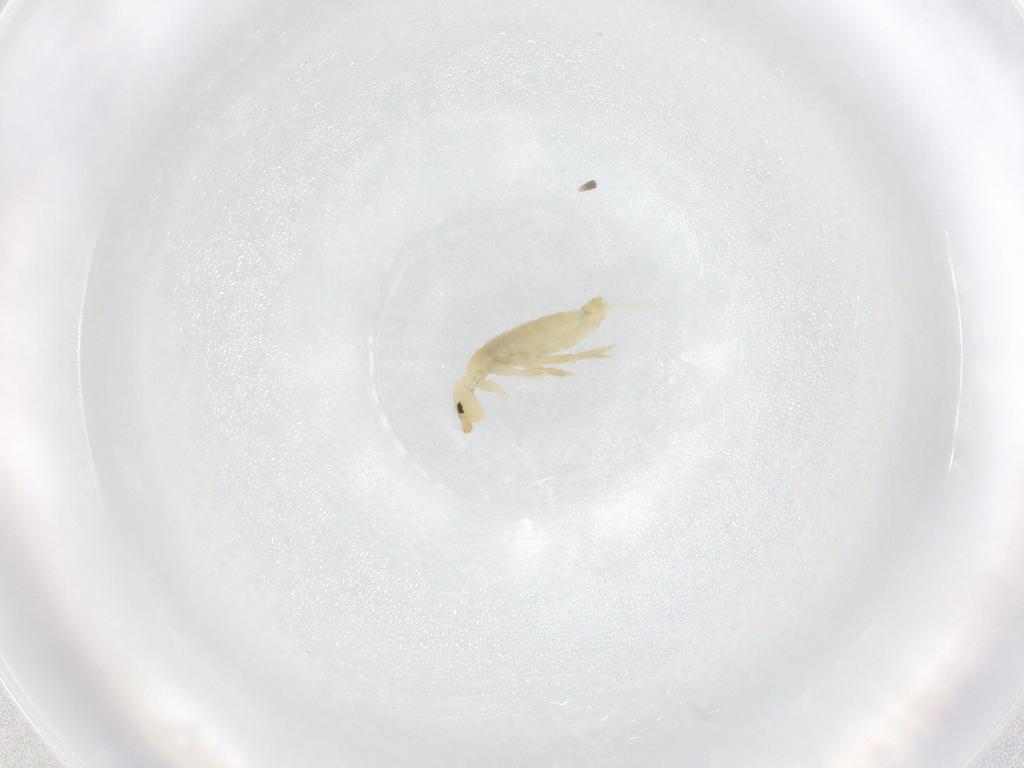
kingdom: Animalia
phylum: Arthropoda
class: Collembola
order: Entomobryomorpha
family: Entomobryidae
